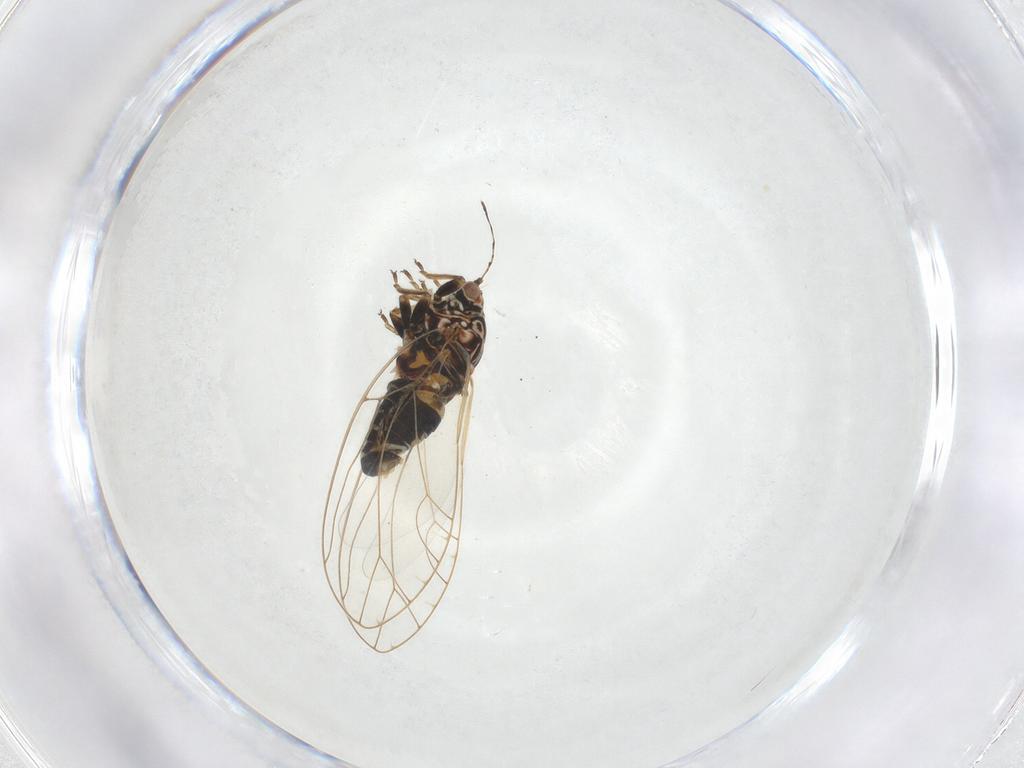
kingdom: Animalia
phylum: Arthropoda
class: Insecta
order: Hemiptera
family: Triozidae
